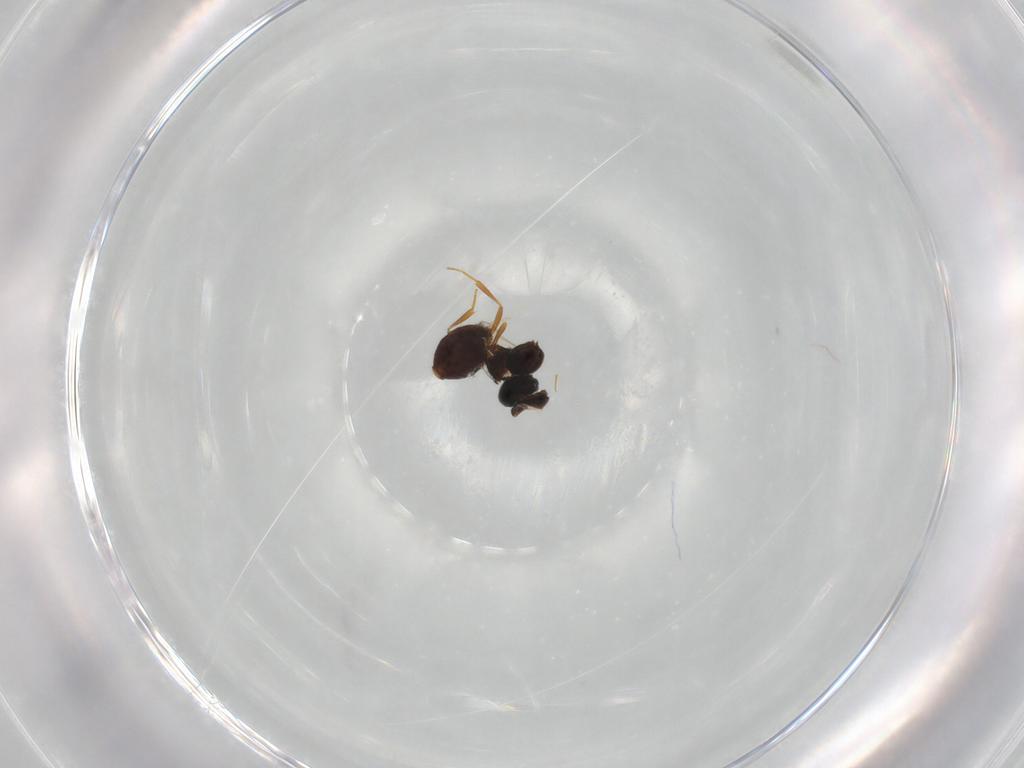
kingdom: Animalia
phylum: Arthropoda
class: Insecta
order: Hymenoptera
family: Scelionidae
